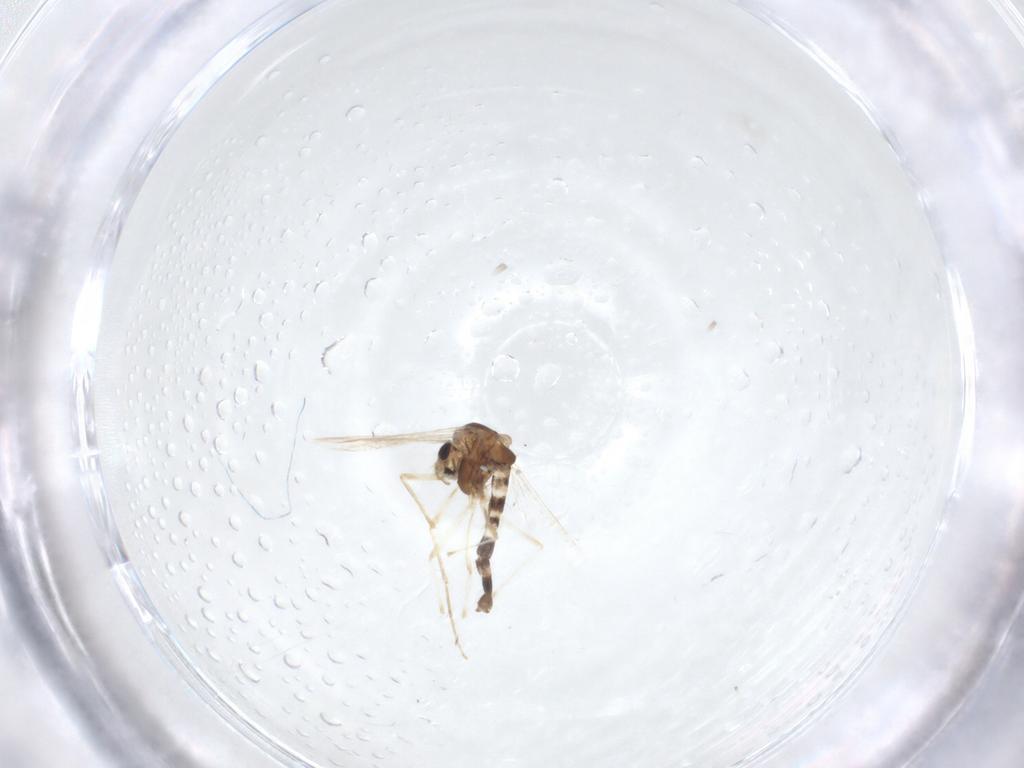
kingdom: Animalia
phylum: Arthropoda
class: Insecta
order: Diptera
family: Chironomidae
